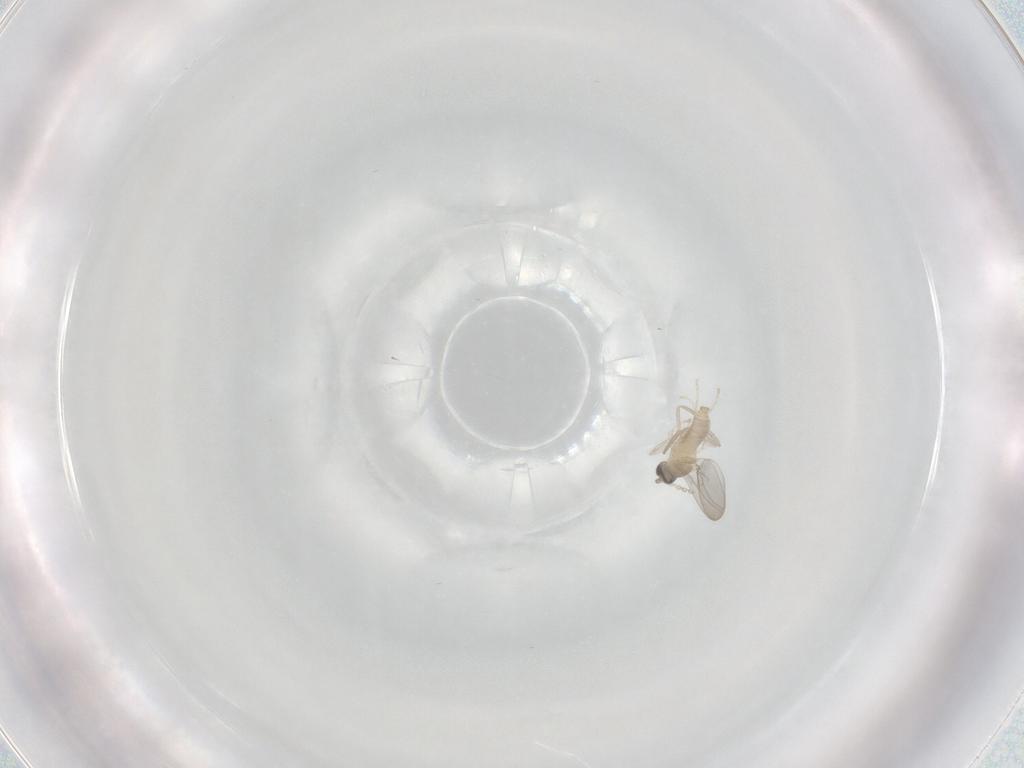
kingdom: Animalia
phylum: Arthropoda
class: Insecta
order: Diptera
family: Cecidomyiidae
